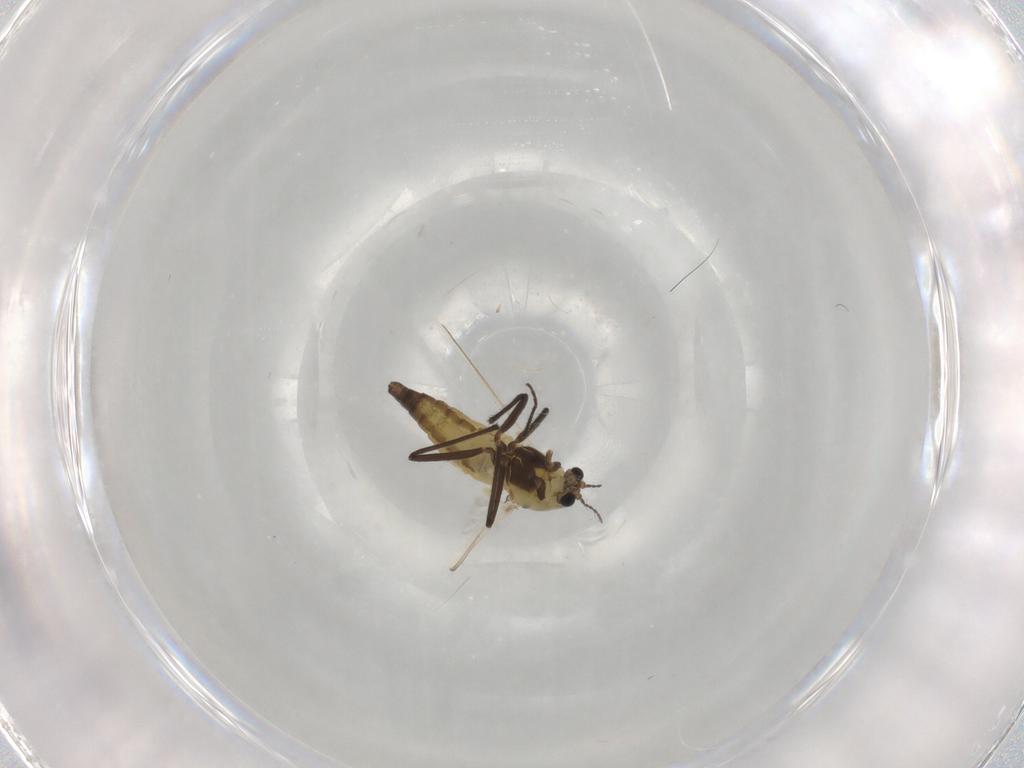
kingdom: Animalia
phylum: Arthropoda
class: Insecta
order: Diptera
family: Chironomidae
